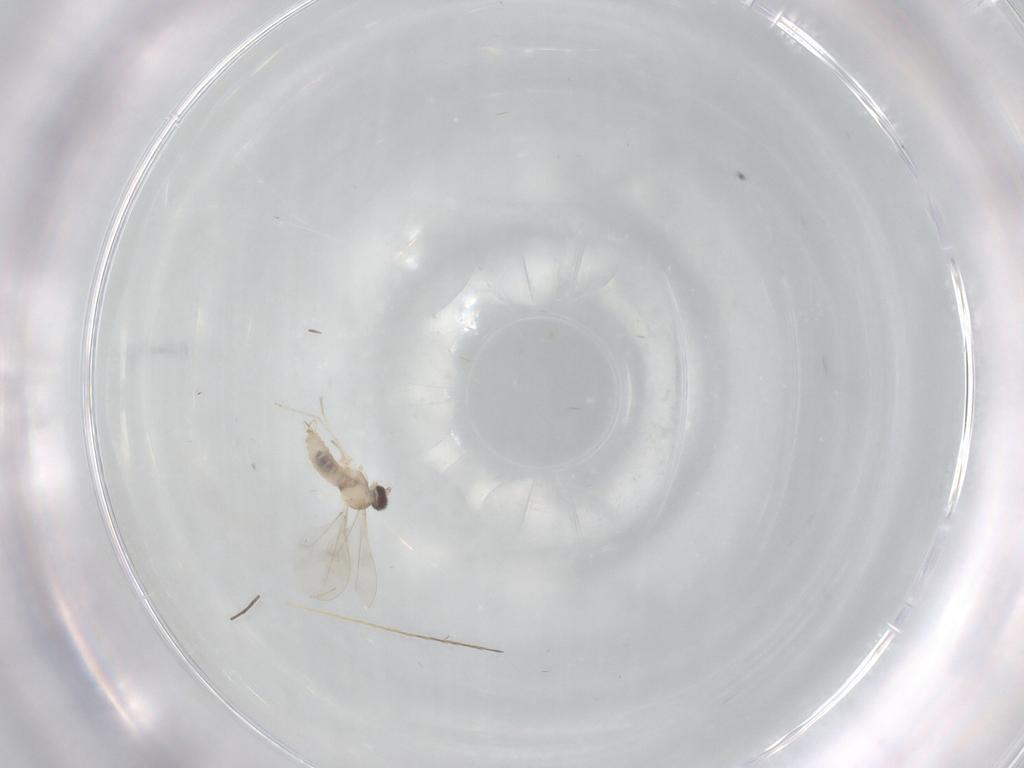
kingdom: Animalia
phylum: Arthropoda
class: Insecta
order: Diptera
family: Cecidomyiidae
